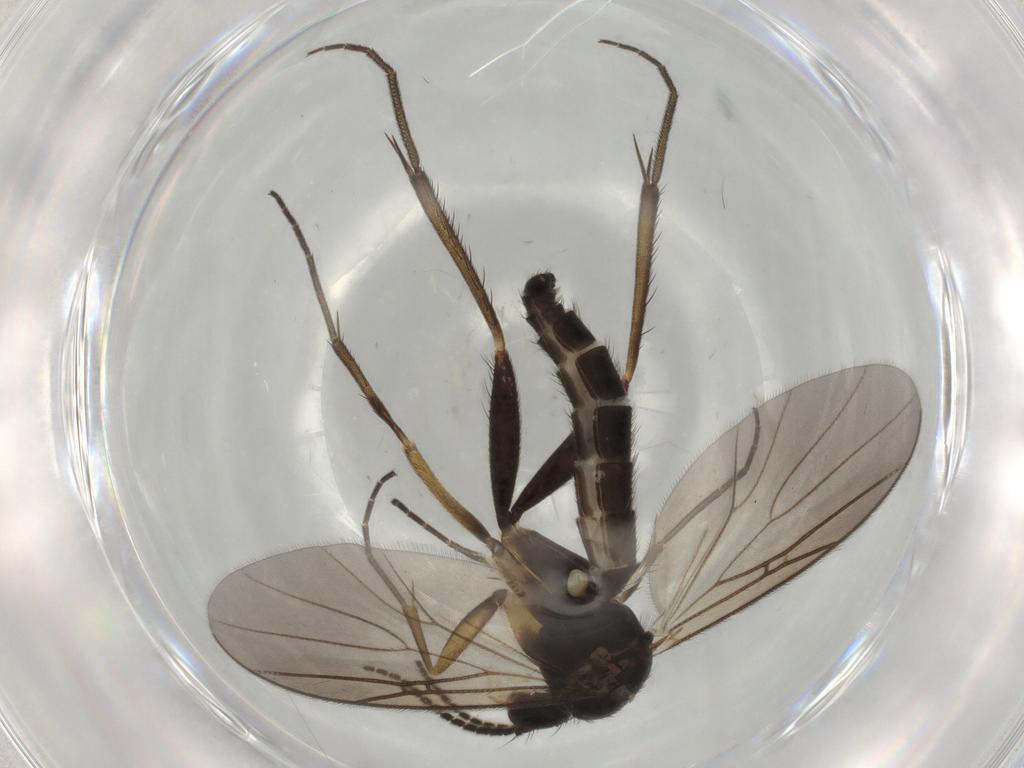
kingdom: Animalia
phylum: Arthropoda
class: Insecta
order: Diptera
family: Mycetophilidae
